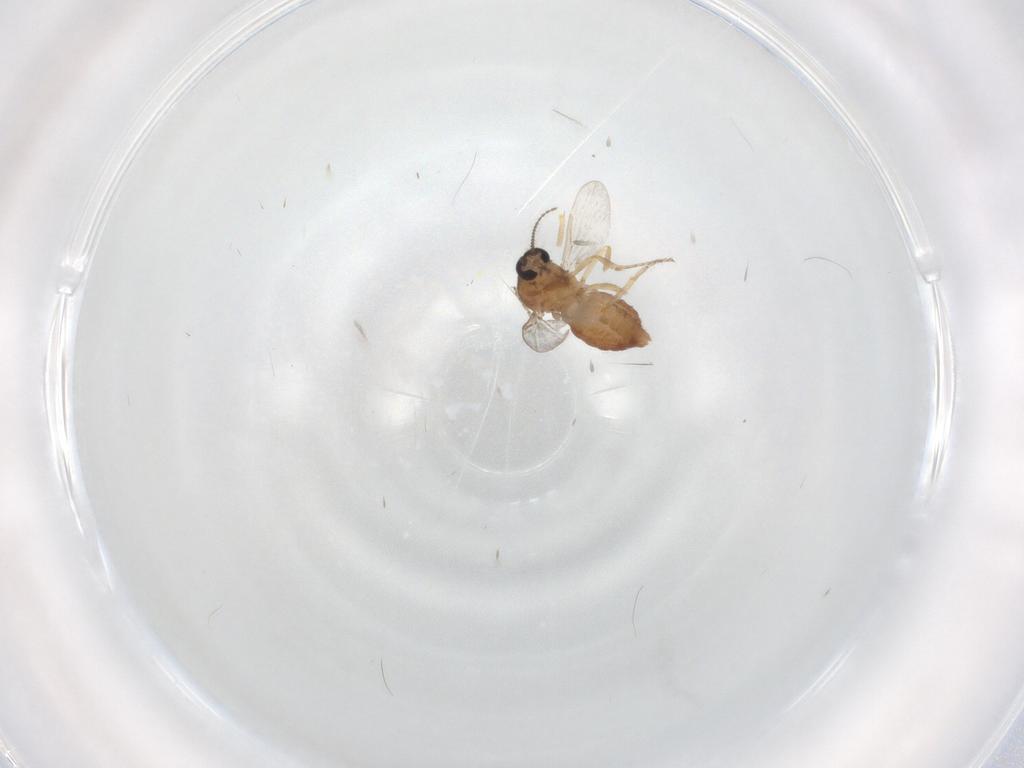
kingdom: Animalia
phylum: Arthropoda
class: Insecta
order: Diptera
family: Ceratopogonidae
